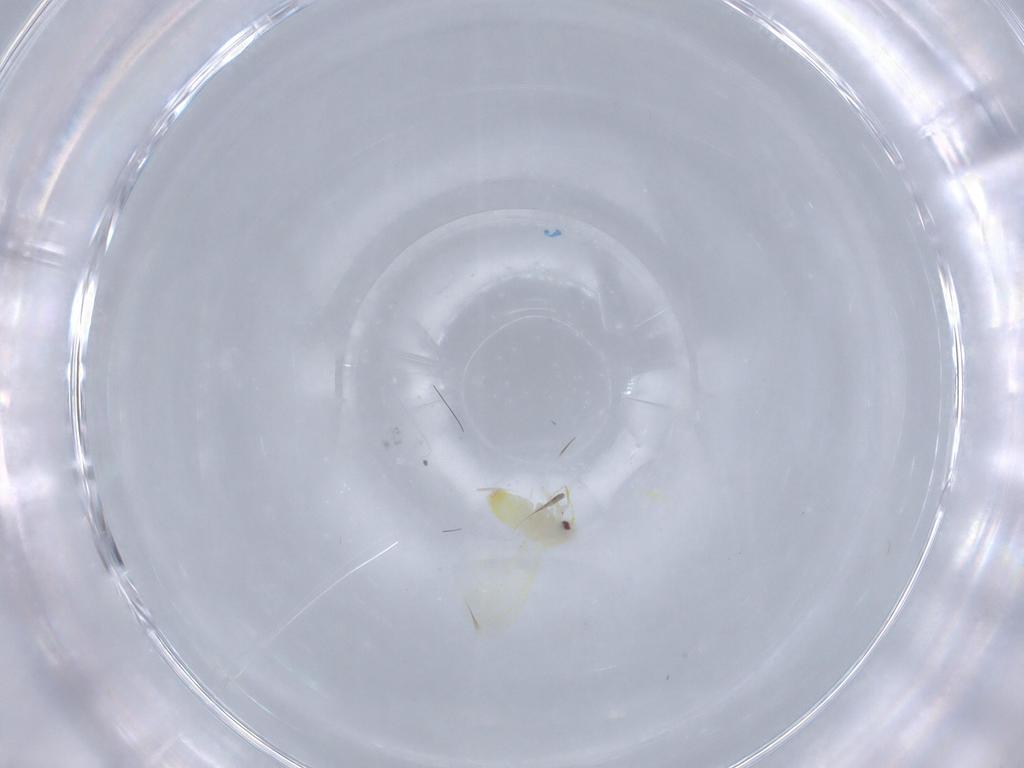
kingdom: Animalia
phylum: Arthropoda
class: Insecta
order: Hemiptera
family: Aleyrodidae
